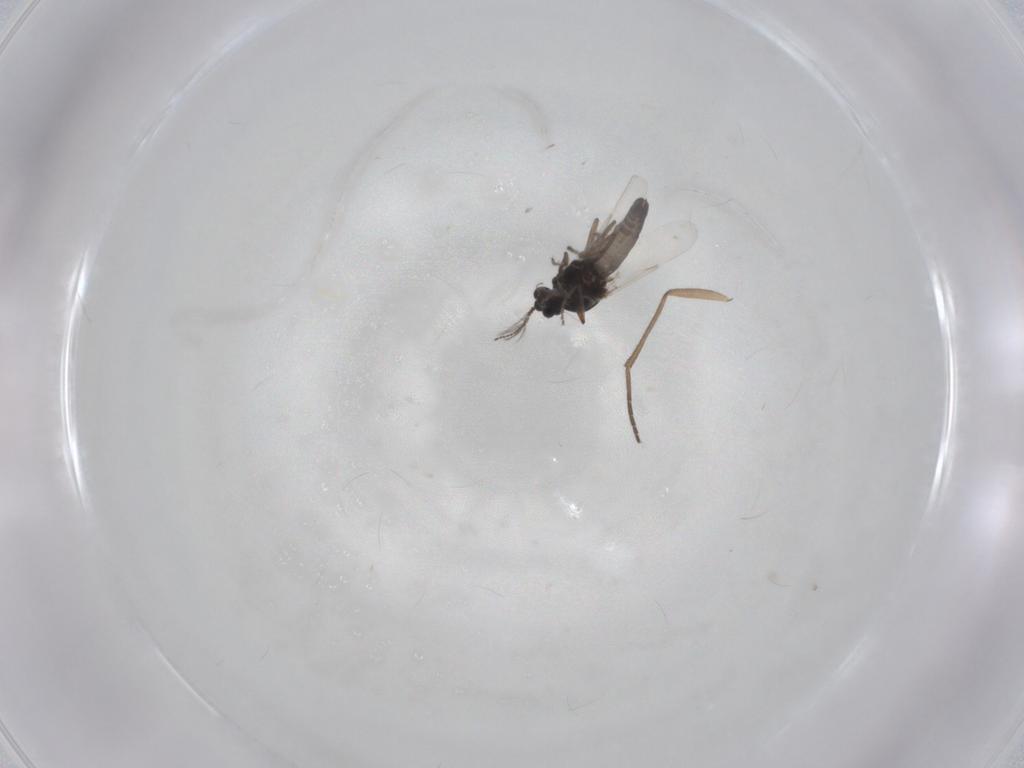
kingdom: Animalia
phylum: Arthropoda
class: Insecta
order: Diptera
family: Ceratopogonidae
